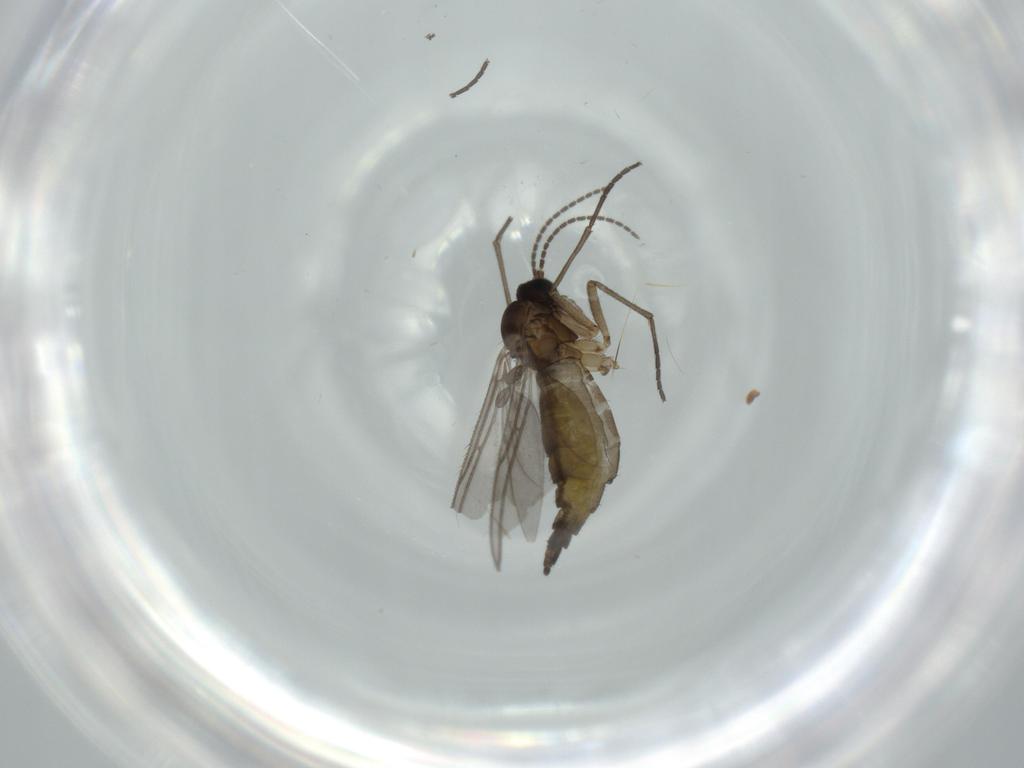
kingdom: Animalia
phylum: Arthropoda
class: Insecta
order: Diptera
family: Sciaridae
